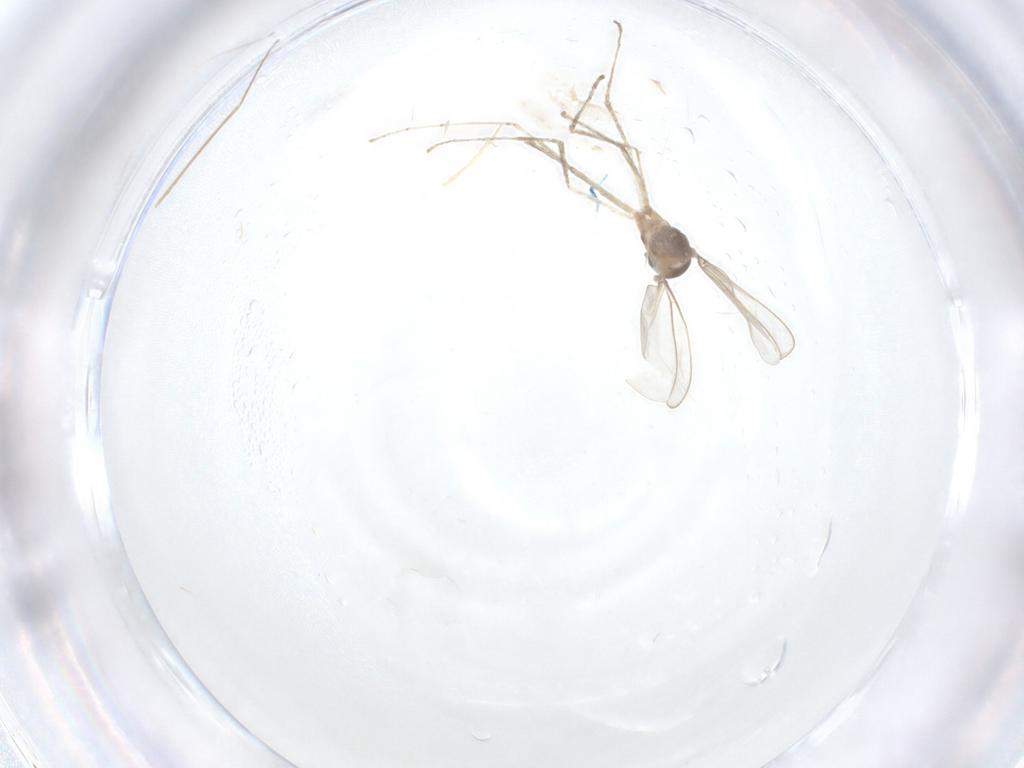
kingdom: Animalia
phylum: Arthropoda
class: Insecta
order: Diptera
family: Cecidomyiidae
